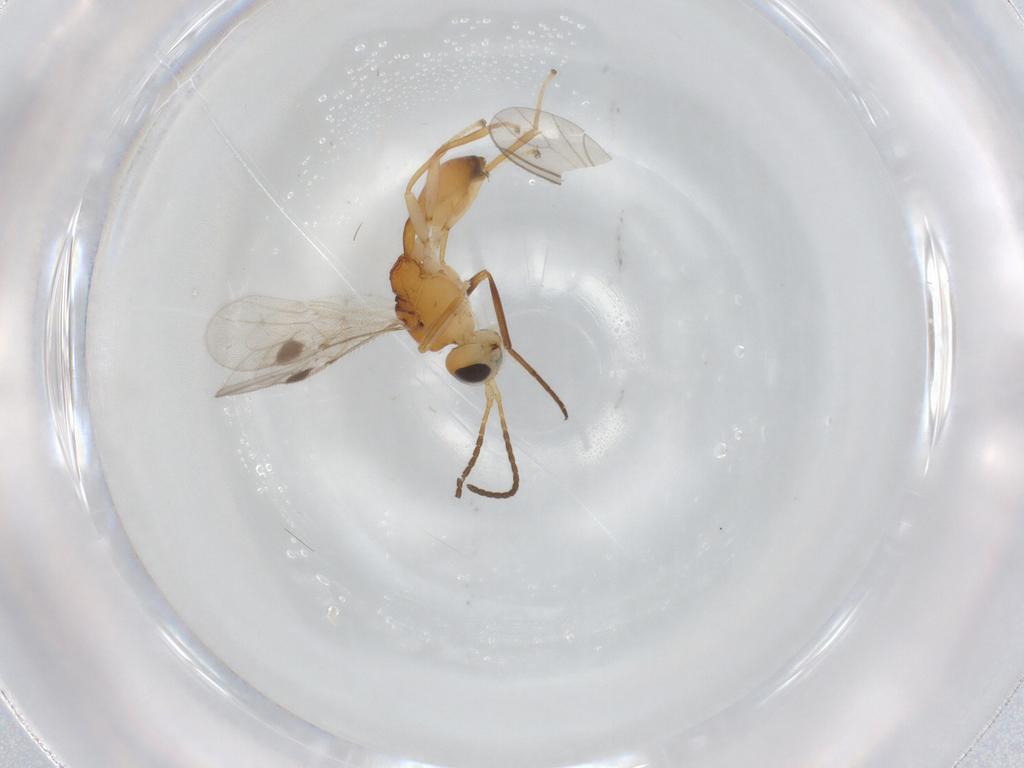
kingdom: Animalia
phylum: Arthropoda
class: Insecta
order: Hymenoptera
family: Braconidae
